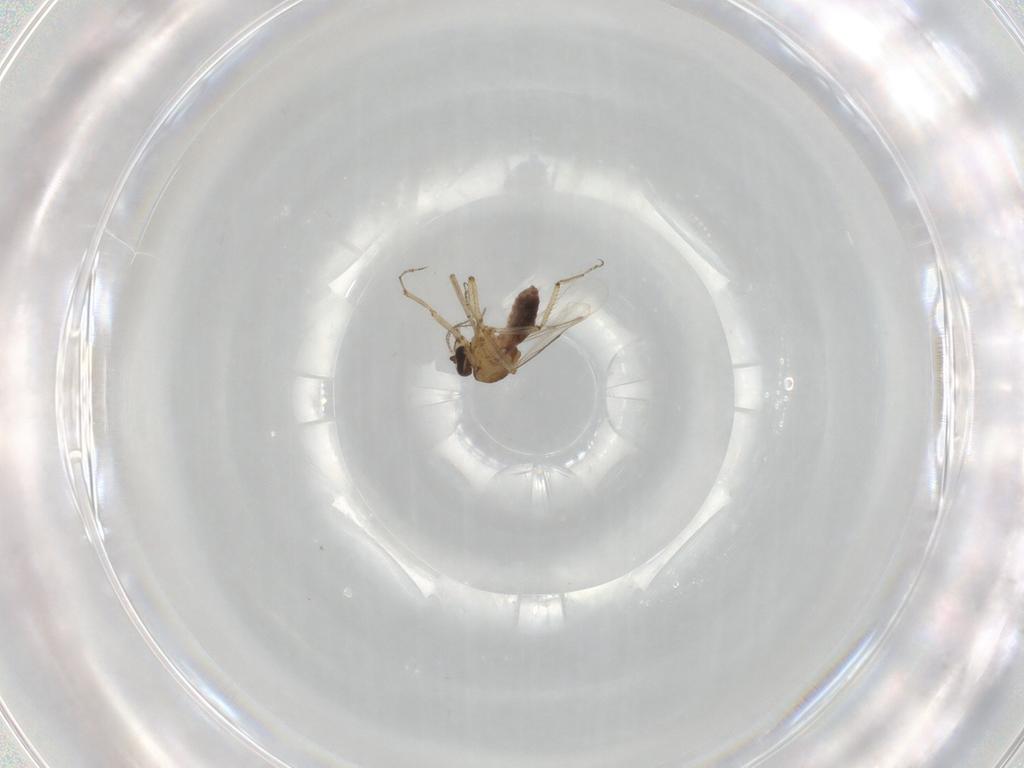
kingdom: Animalia
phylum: Arthropoda
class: Insecta
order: Diptera
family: Ceratopogonidae
